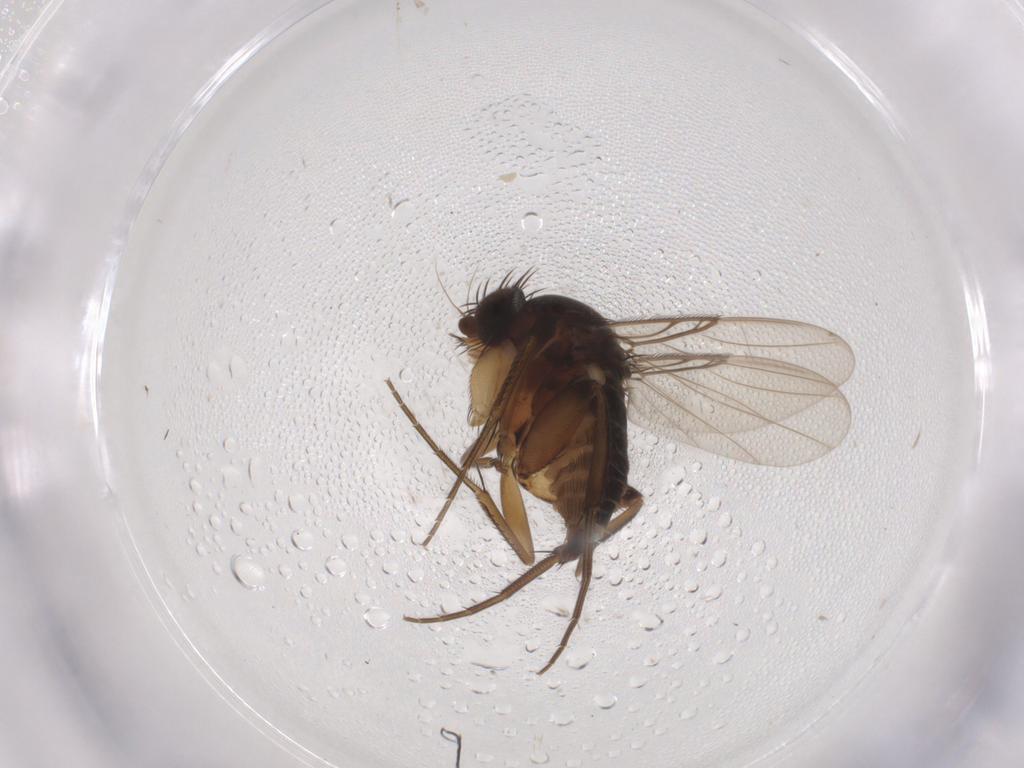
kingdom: Animalia
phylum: Arthropoda
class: Insecta
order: Diptera
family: Phoridae
